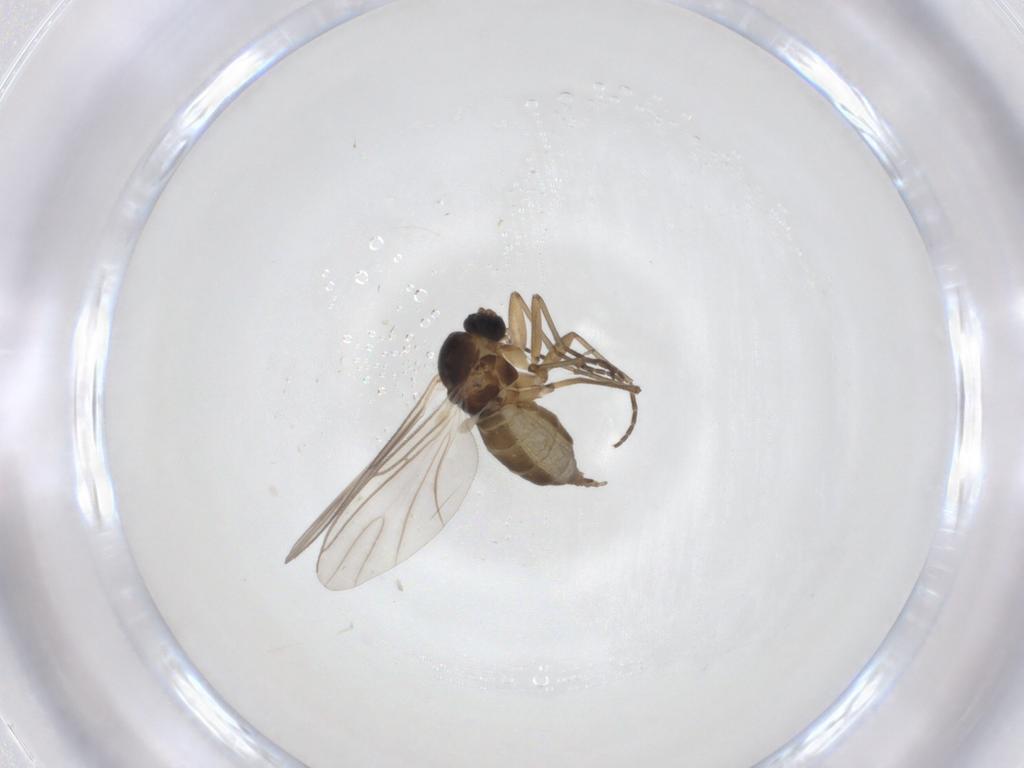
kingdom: Animalia
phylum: Arthropoda
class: Insecta
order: Diptera
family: Sciaridae
